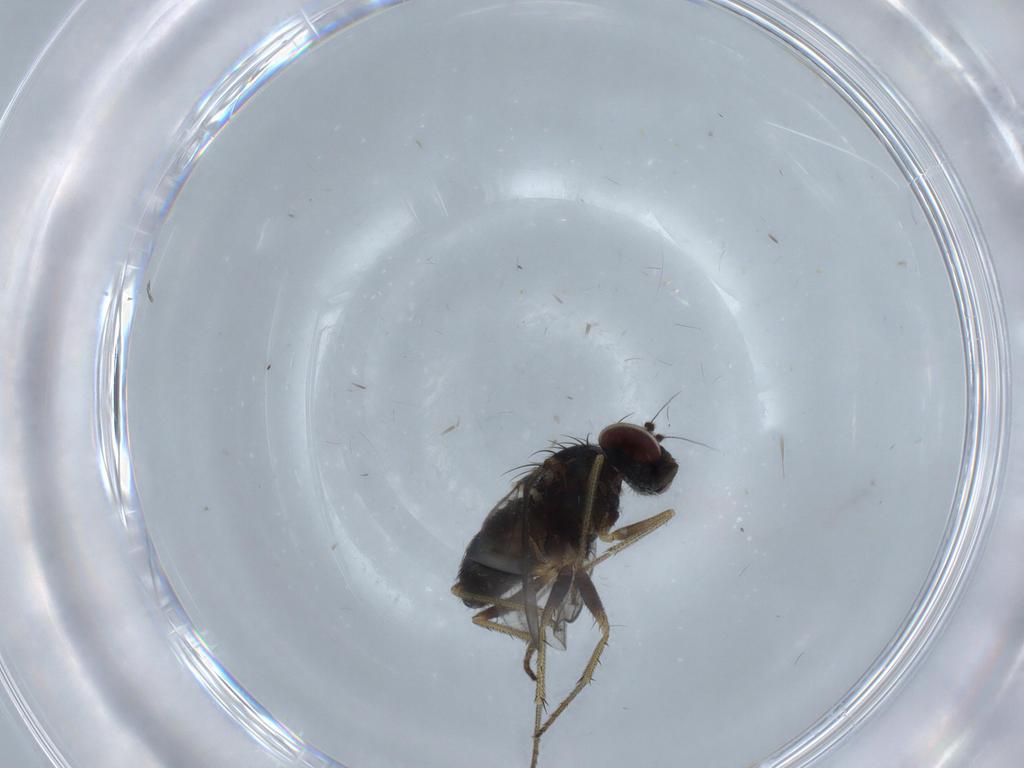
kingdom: Animalia
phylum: Arthropoda
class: Insecta
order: Diptera
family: Dolichopodidae
